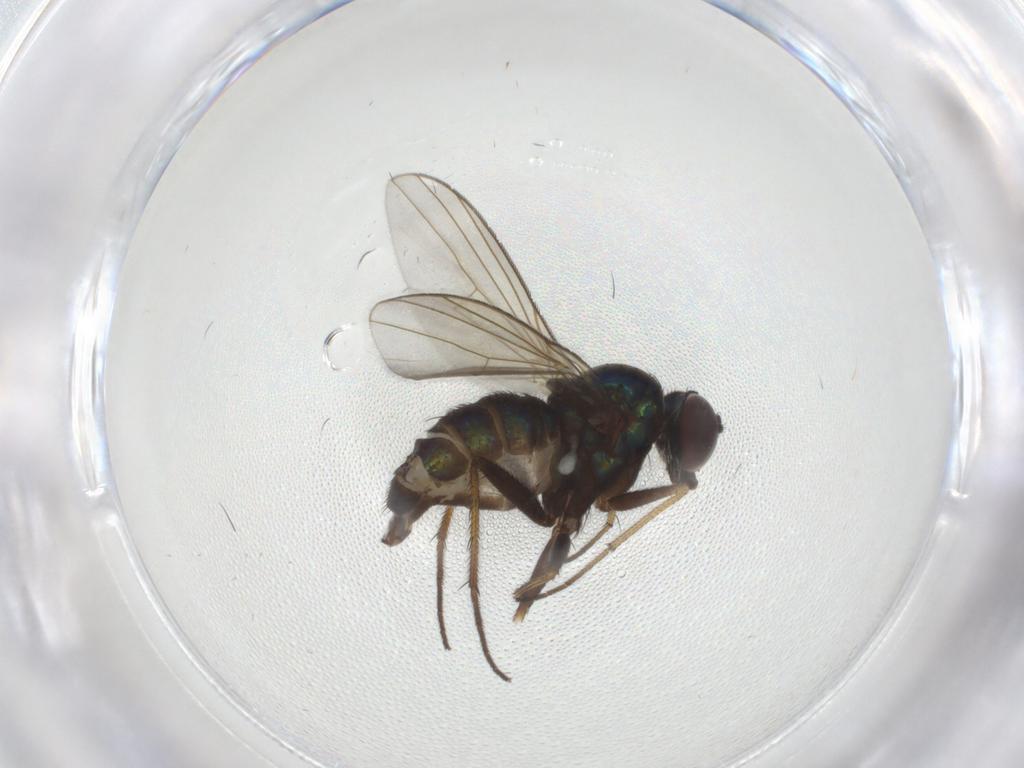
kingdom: Animalia
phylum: Arthropoda
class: Insecta
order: Diptera
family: Dolichopodidae
